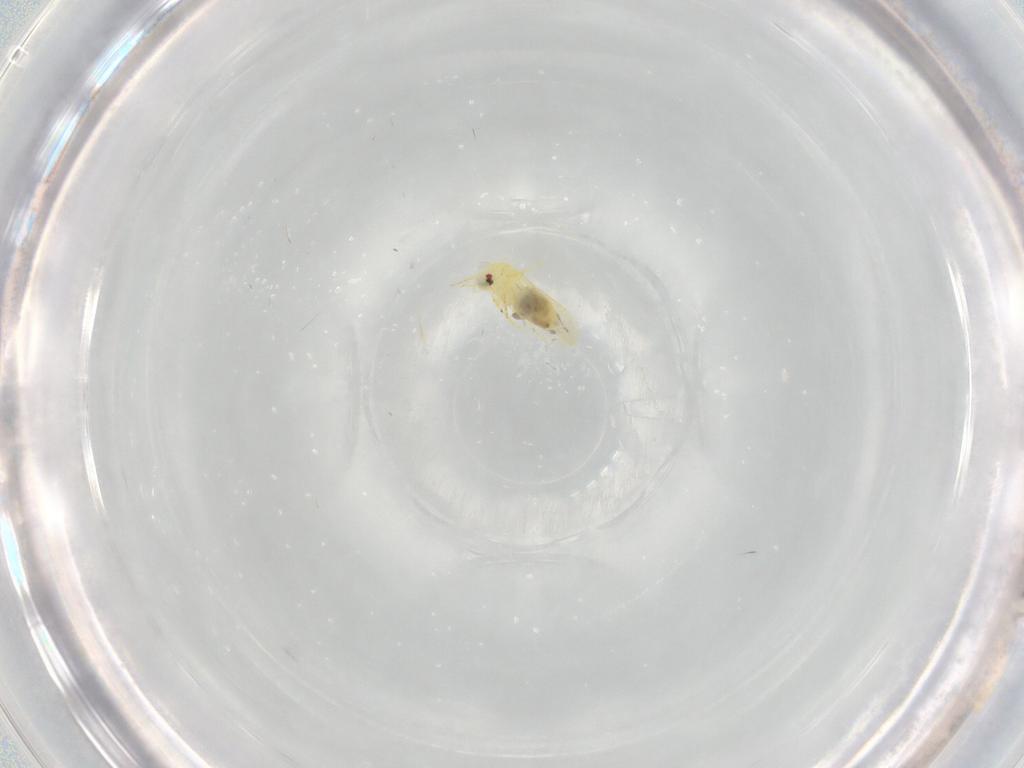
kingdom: Animalia
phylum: Arthropoda
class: Insecta
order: Hemiptera
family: Aleyrodidae
